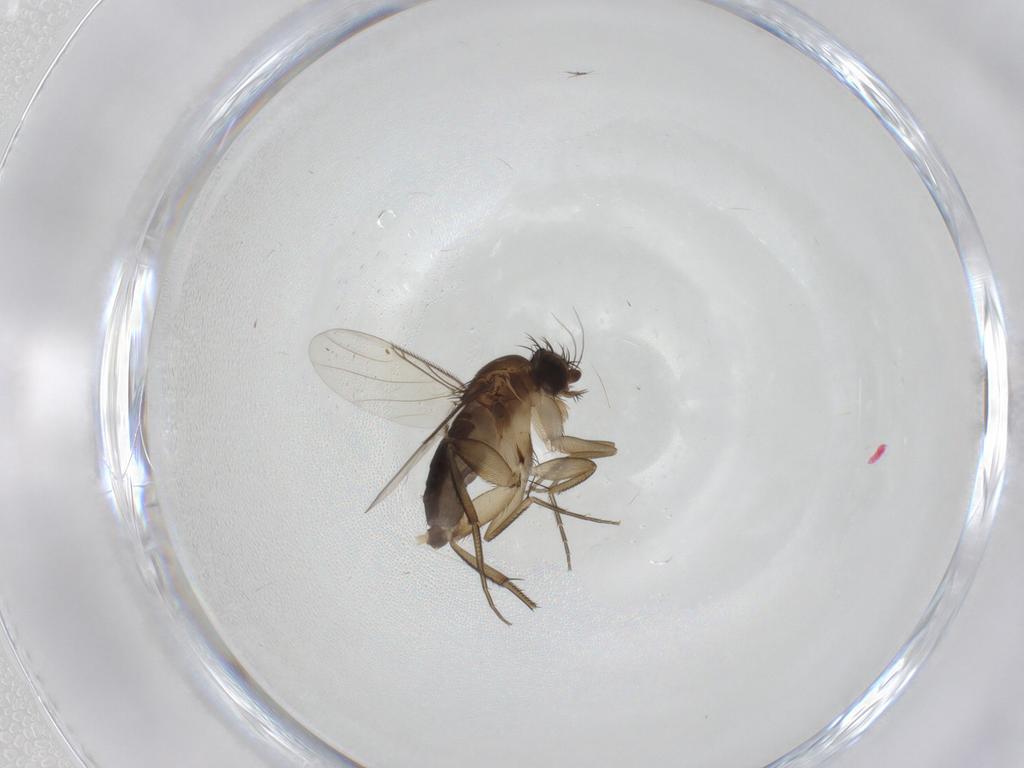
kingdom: Animalia
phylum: Arthropoda
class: Insecta
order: Diptera
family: Phoridae
